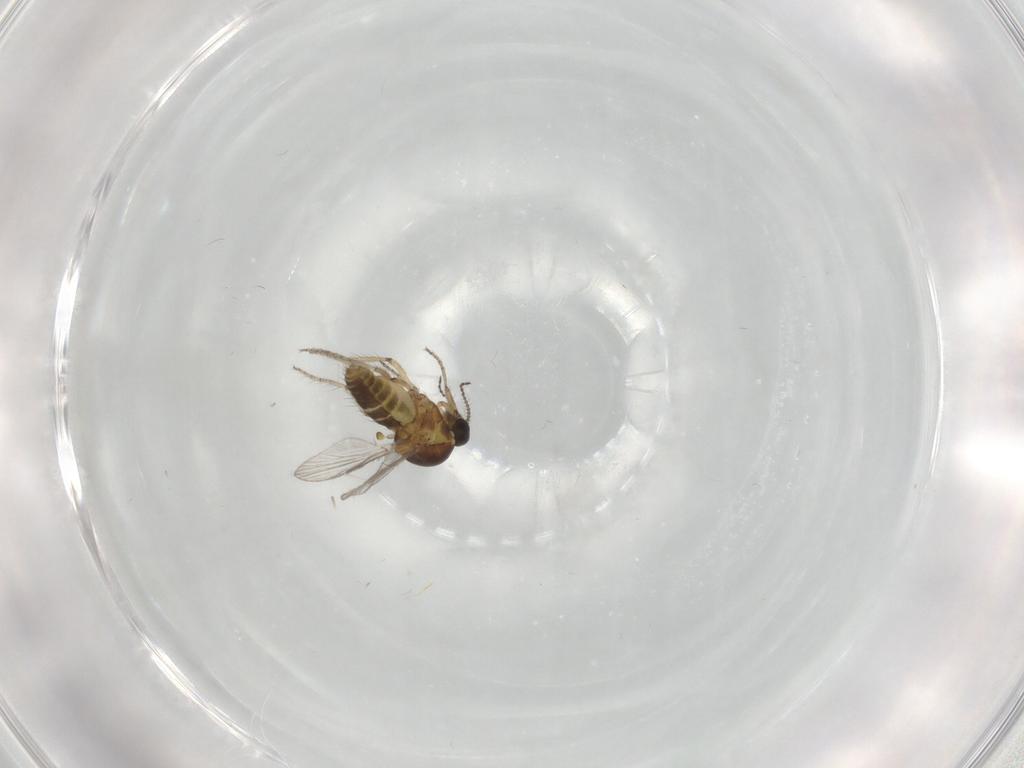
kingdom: Animalia
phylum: Arthropoda
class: Insecta
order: Diptera
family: Ceratopogonidae
